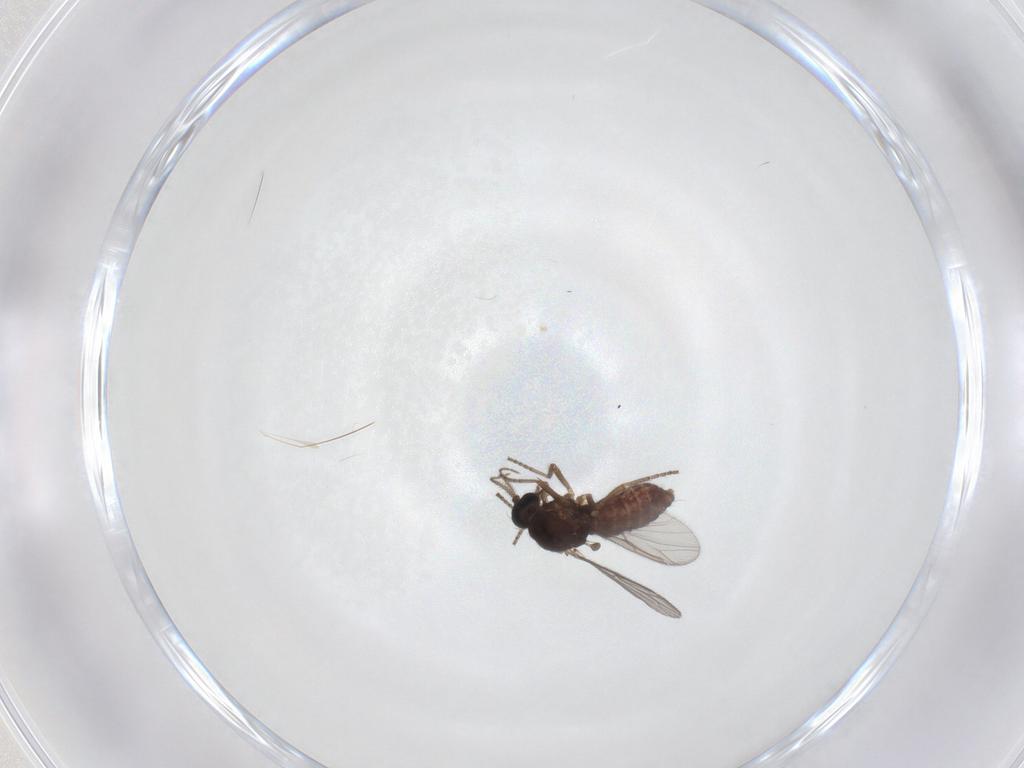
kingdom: Animalia
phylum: Arthropoda
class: Insecta
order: Diptera
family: Ceratopogonidae
